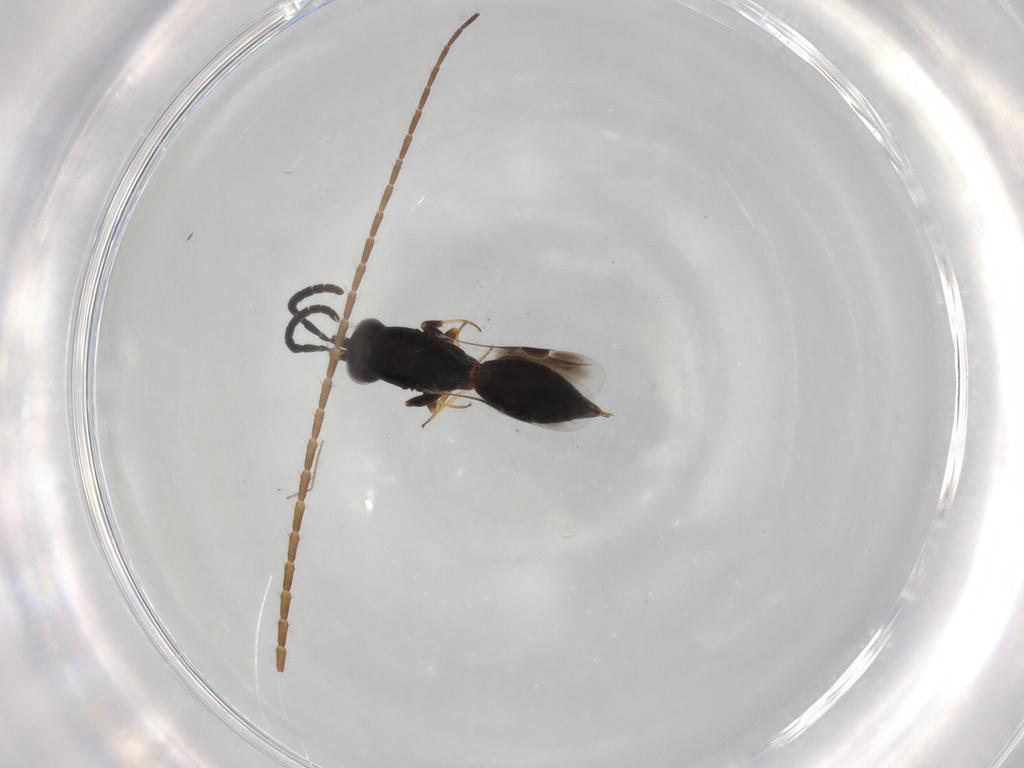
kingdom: Animalia
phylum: Arthropoda
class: Insecta
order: Hymenoptera
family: Megaspilidae
